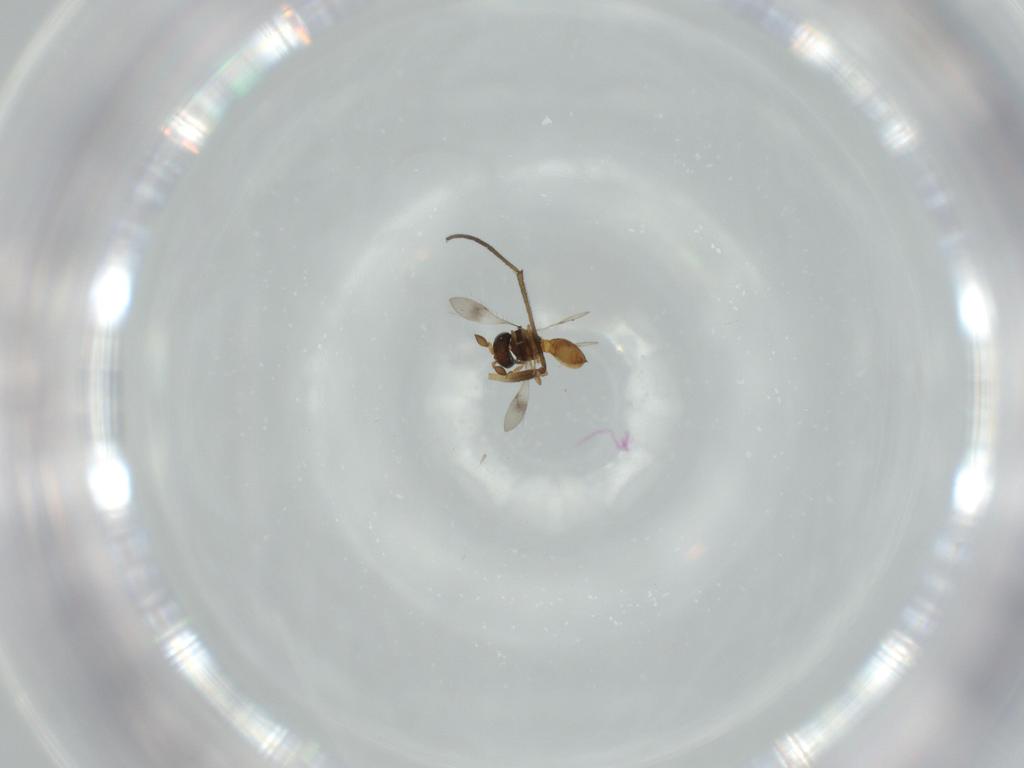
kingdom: Animalia
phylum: Arthropoda
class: Insecta
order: Hymenoptera
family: Scelionidae
